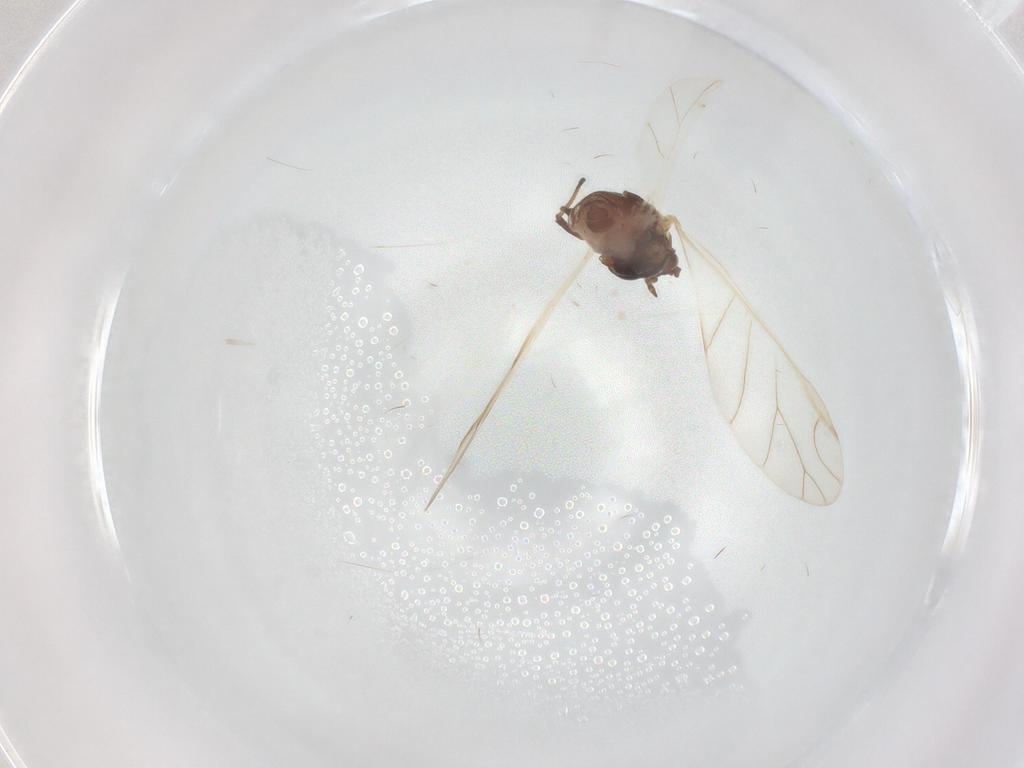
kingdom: Animalia
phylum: Arthropoda
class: Insecta
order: Hemiptera
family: Aphididae
